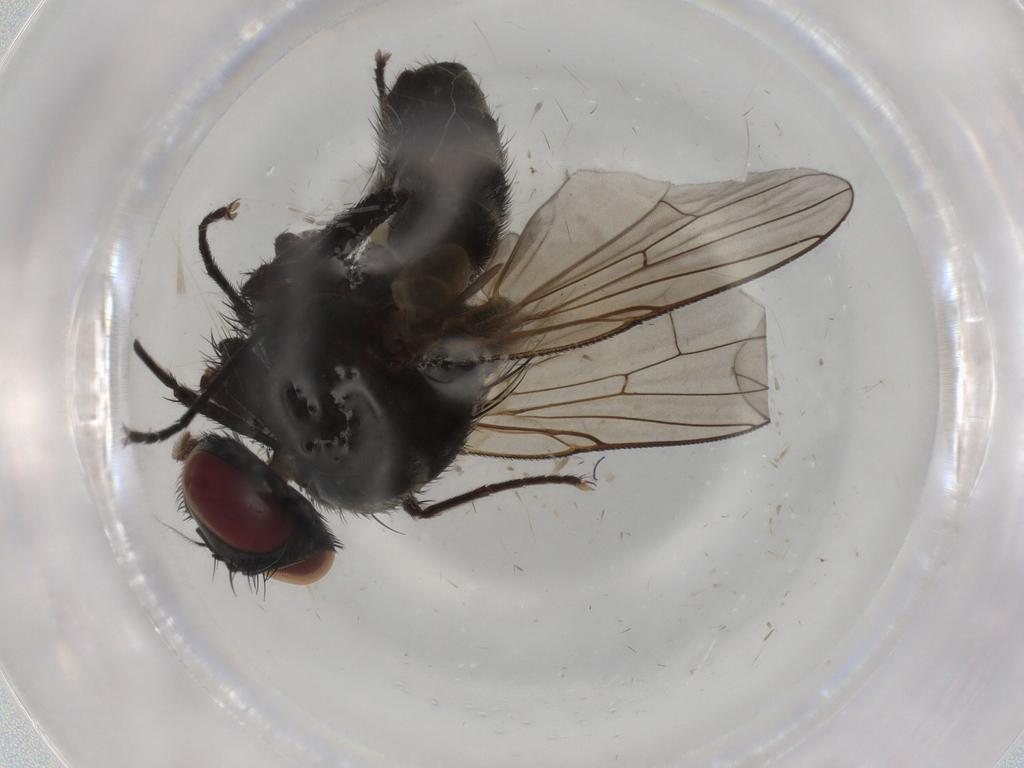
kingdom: Animalia
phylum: Arthropoda
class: Insecta
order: Diptera
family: Muscidae
